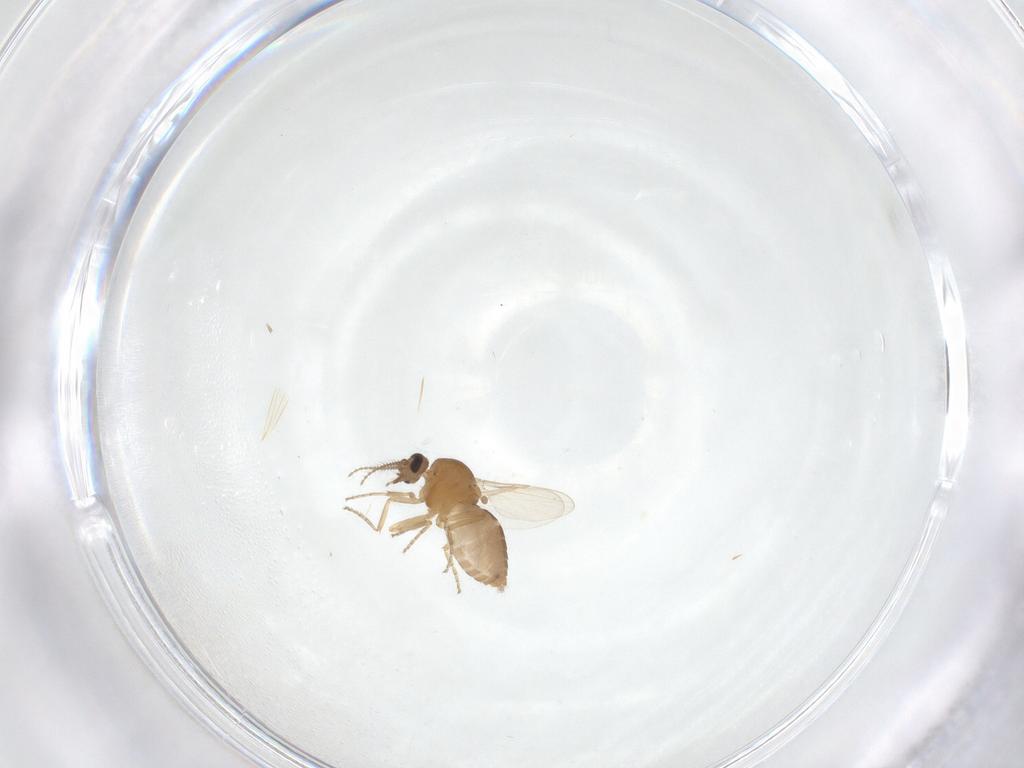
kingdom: Animalia
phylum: Arthropoda
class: Insecta
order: Diptera
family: Ceratopogonidae
